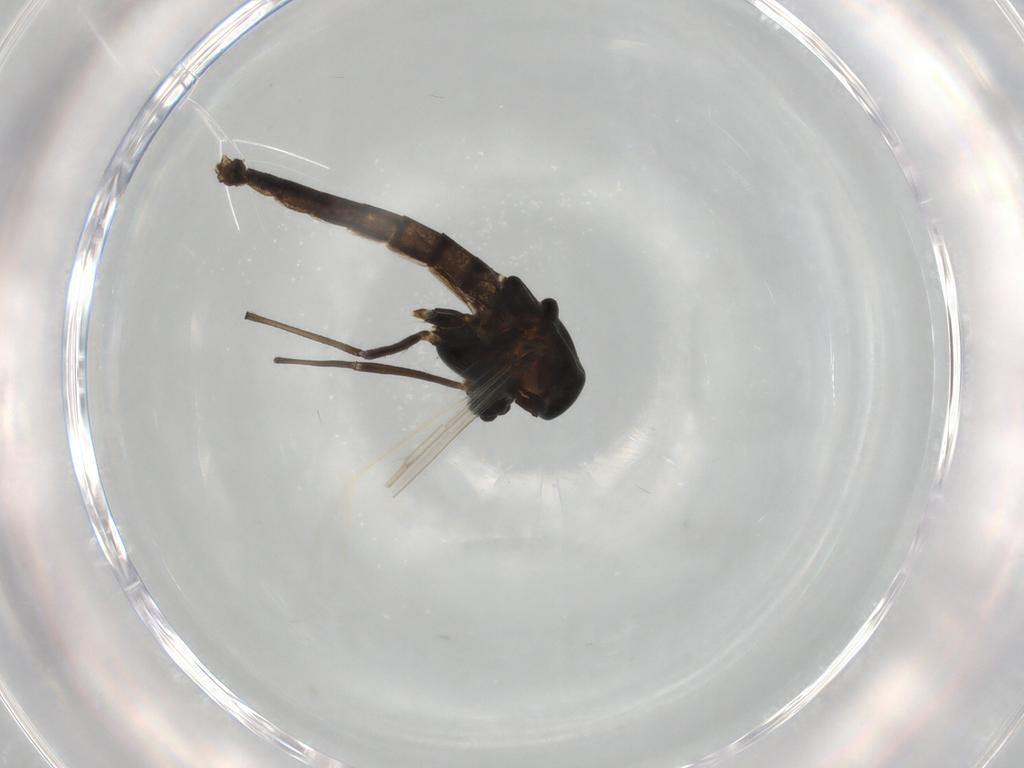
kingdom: Animalia
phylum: Arthropoda
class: Insecta
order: Diptera
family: Chironomidae
